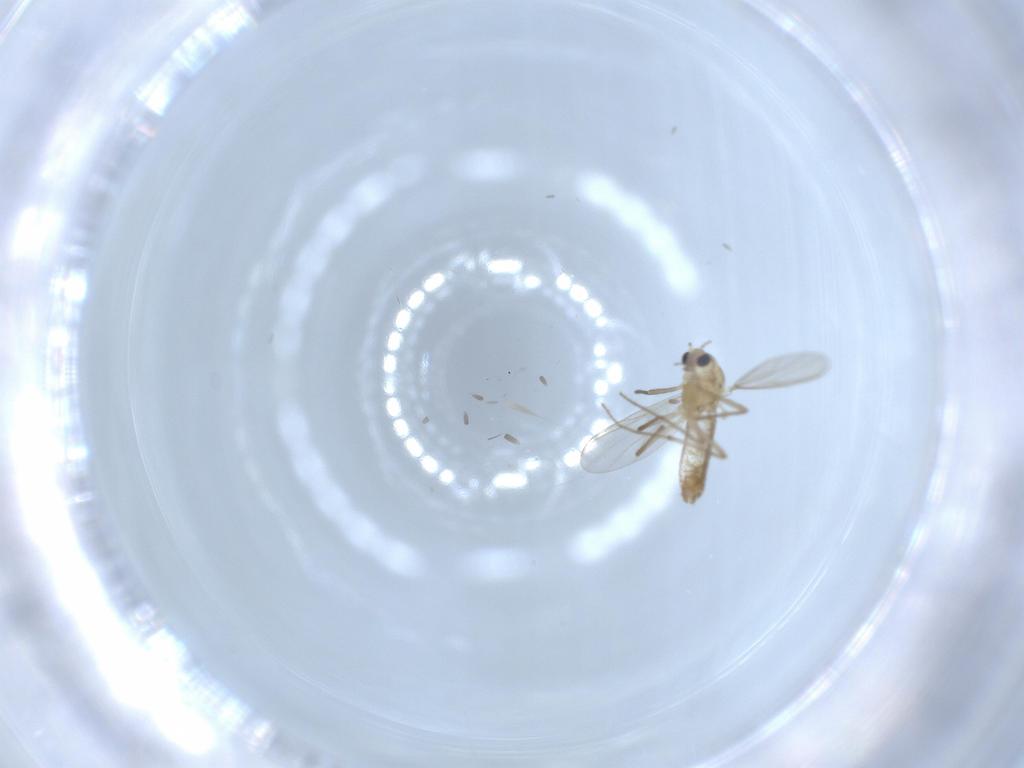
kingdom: Animalia
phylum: Arthropoda
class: Insecta
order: Diptera
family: Chironomidae
